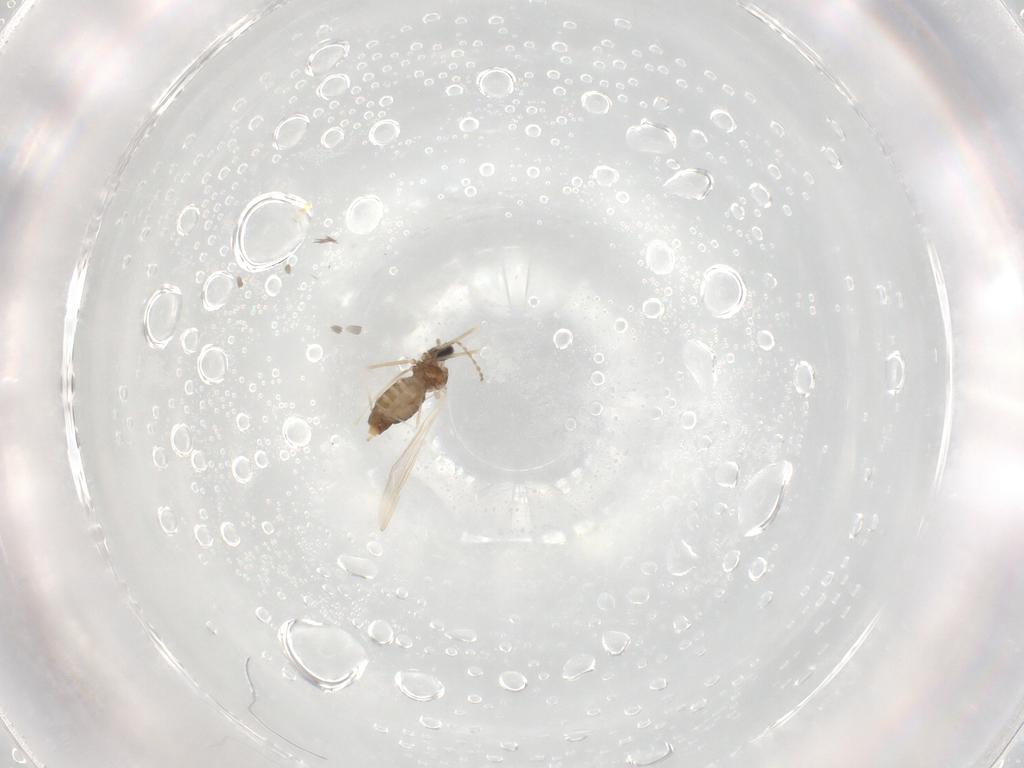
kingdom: Animalia
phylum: Arthropoda
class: Insecta
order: Diptera
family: Ceratopogonidae
